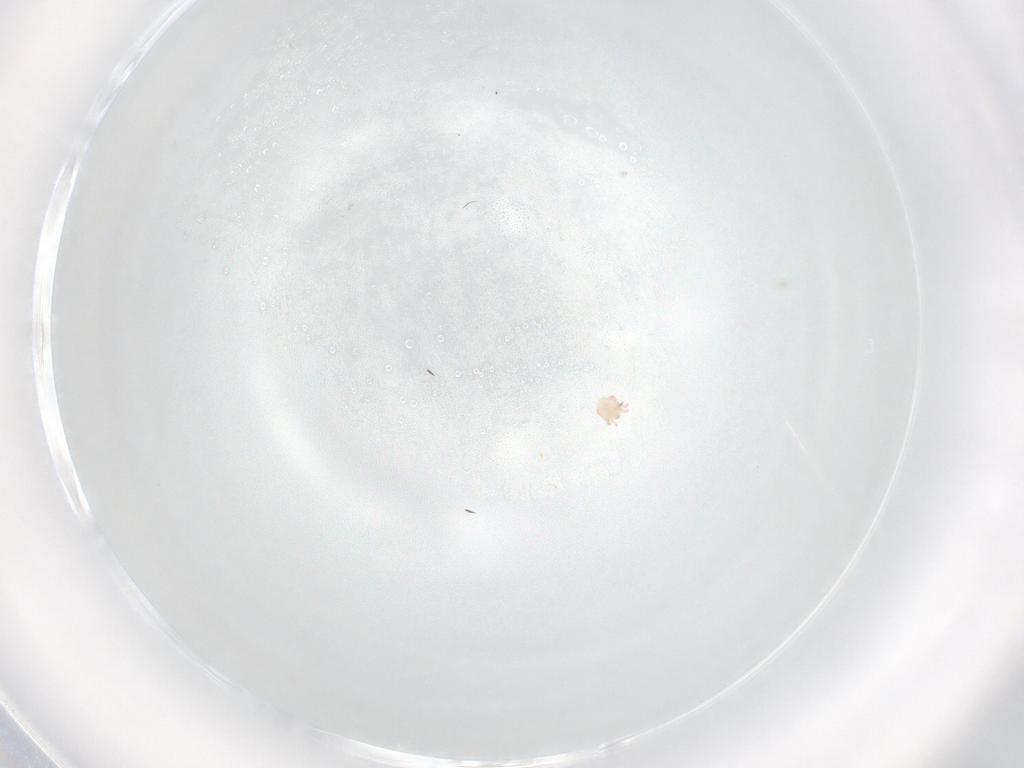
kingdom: Animalia
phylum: Arthropoda
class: Arachnida
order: Trombidiformes
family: Limnesiidae
